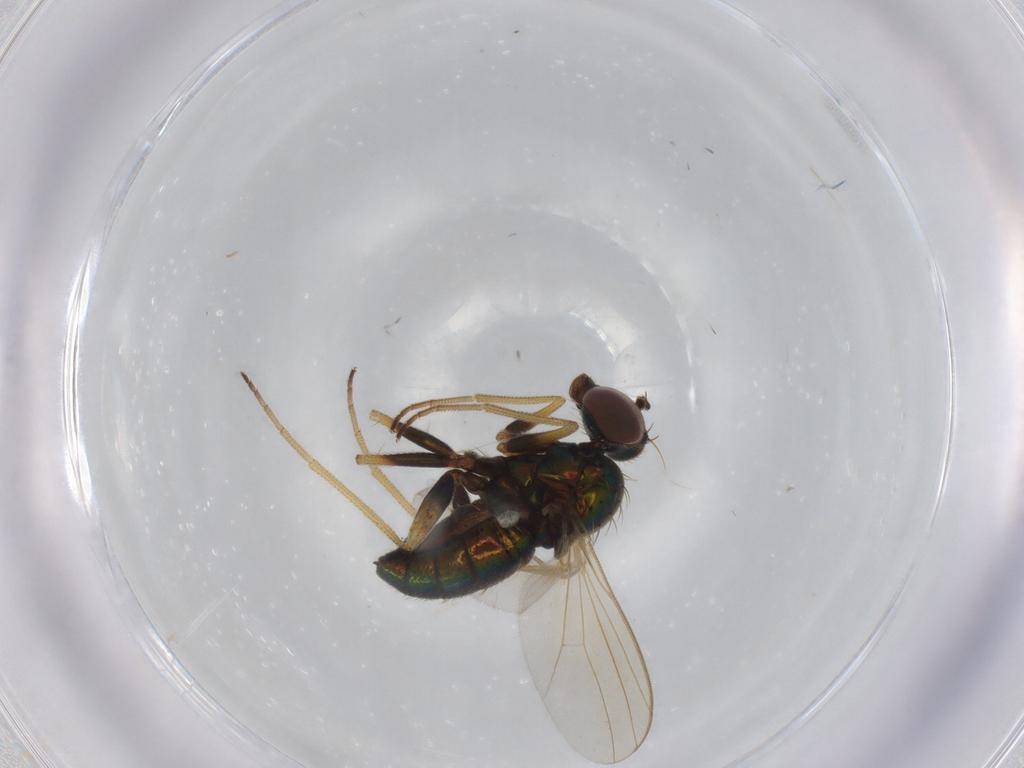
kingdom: Animalia
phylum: Arthropoda
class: Insecta
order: Diptera
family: Dolichopodidae
